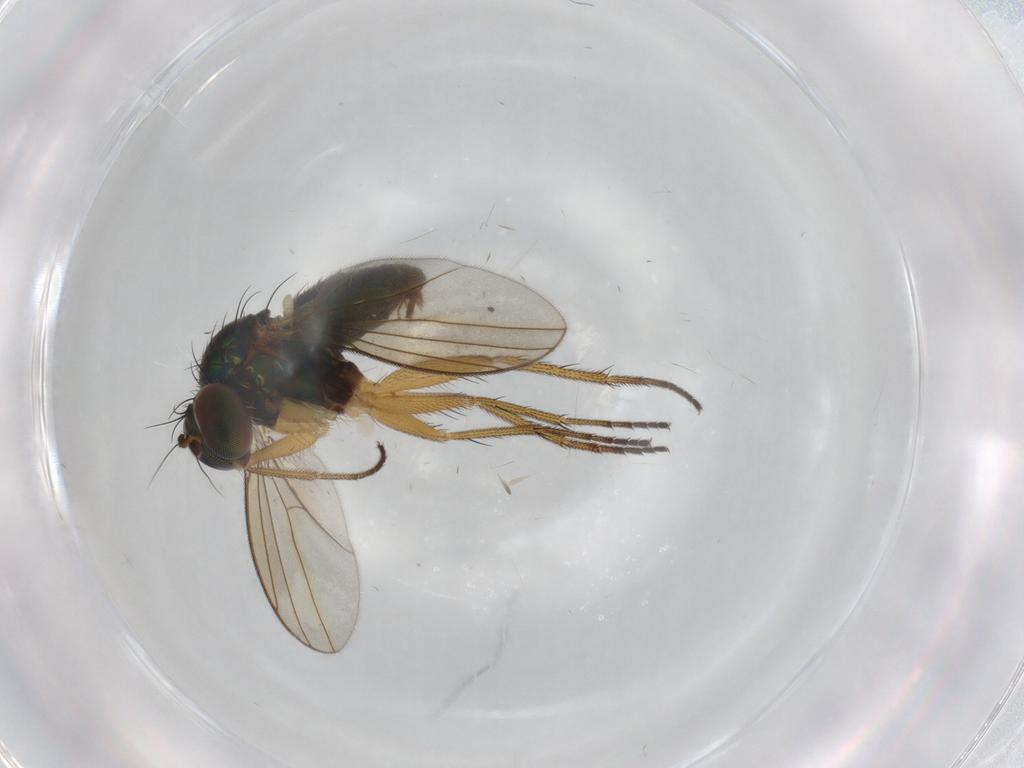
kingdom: Animalia
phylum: Arthropoda
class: Insecta
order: Diptera
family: Dolichopodidae
